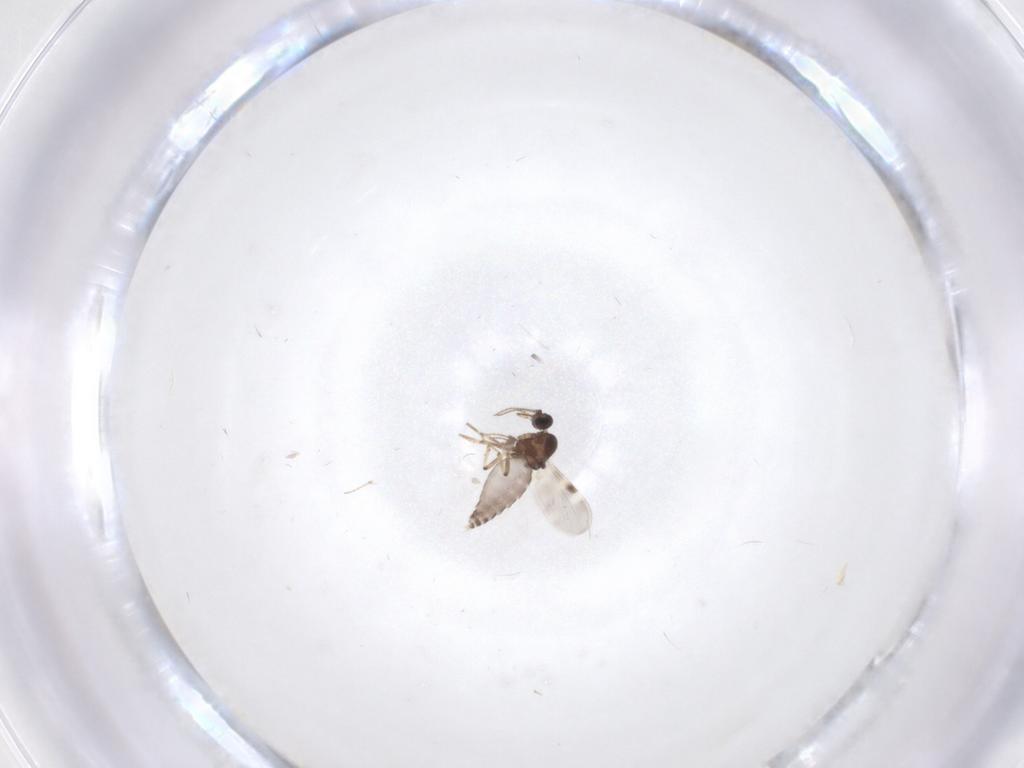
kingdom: Animalia
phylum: Arthropoda
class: Insecta
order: Diptera
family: Cecidomyiidae
